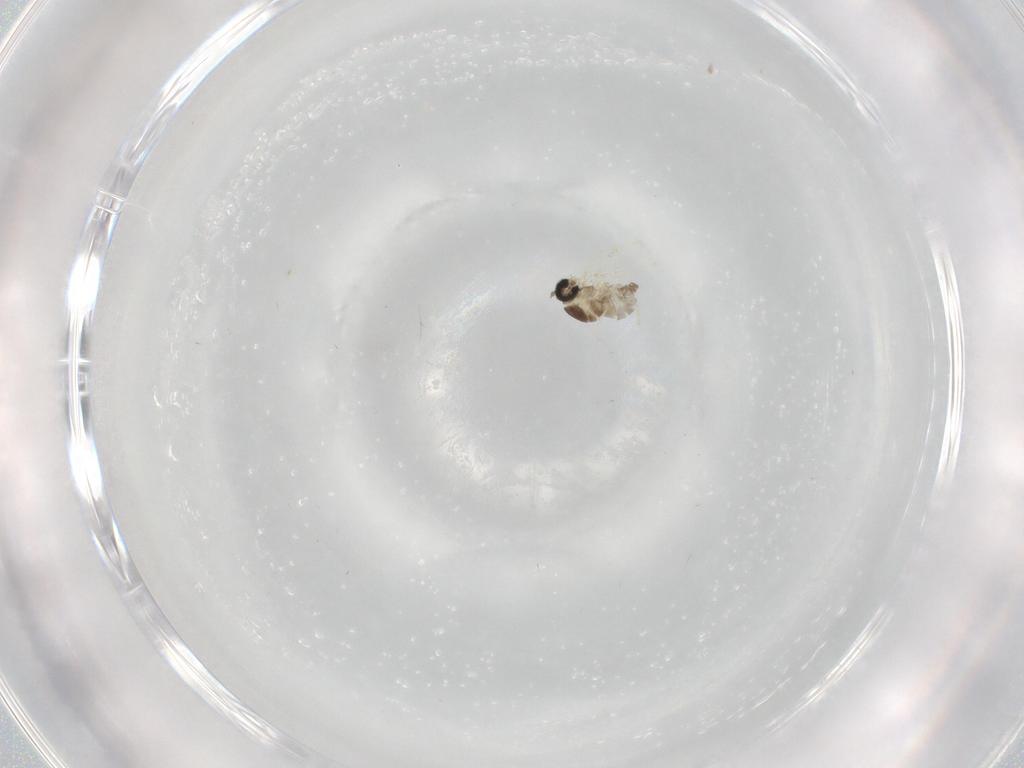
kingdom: Animalia
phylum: Arthropoda
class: Insecta
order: Diptera
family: Cecidomyiidae
